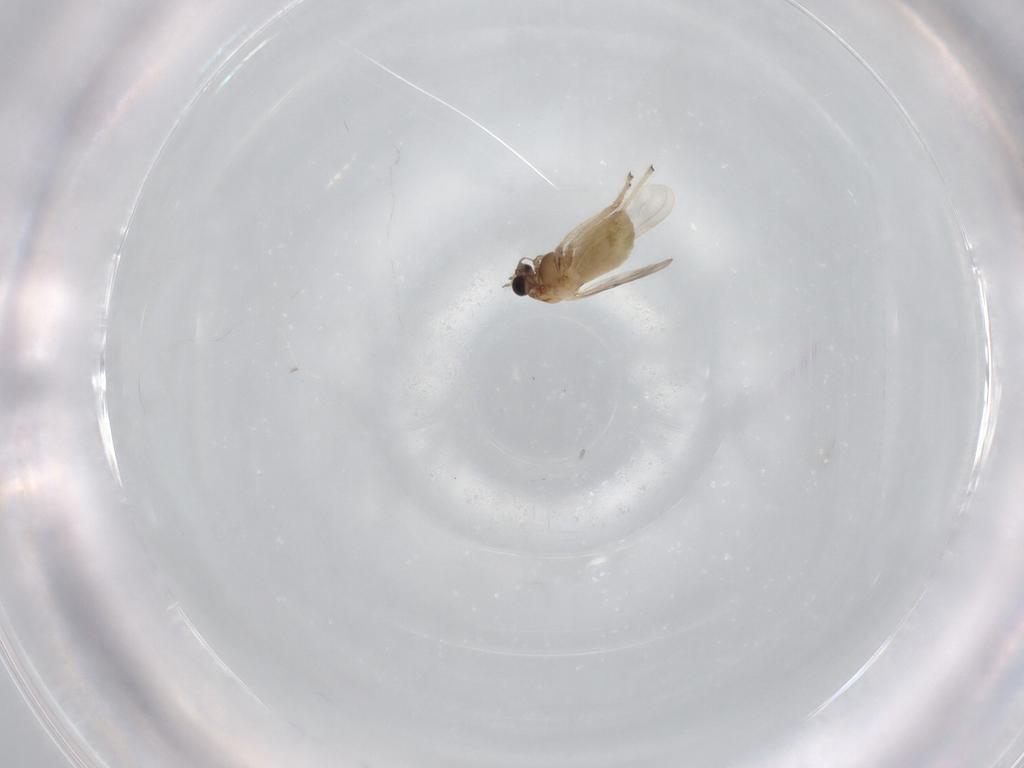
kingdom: Animalia
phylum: Arthropoda
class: Insecta
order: Diptera
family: Chironomidae
